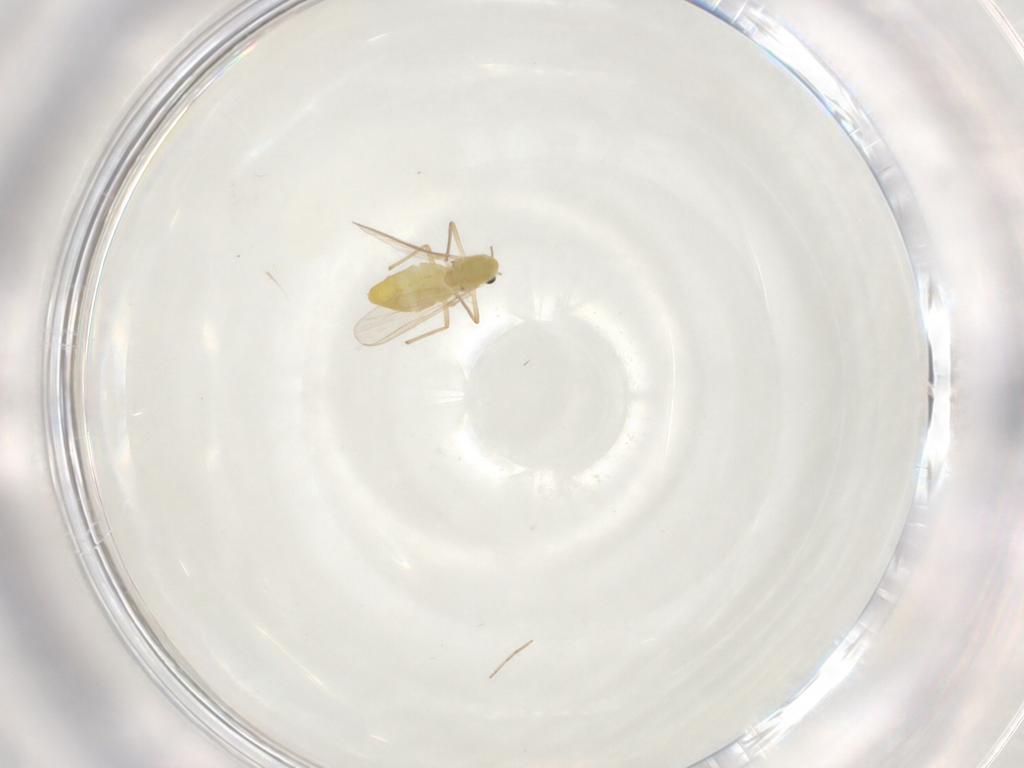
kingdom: Animalia
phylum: Arthropoda
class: Insecta
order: Diptera
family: Chironomidae
